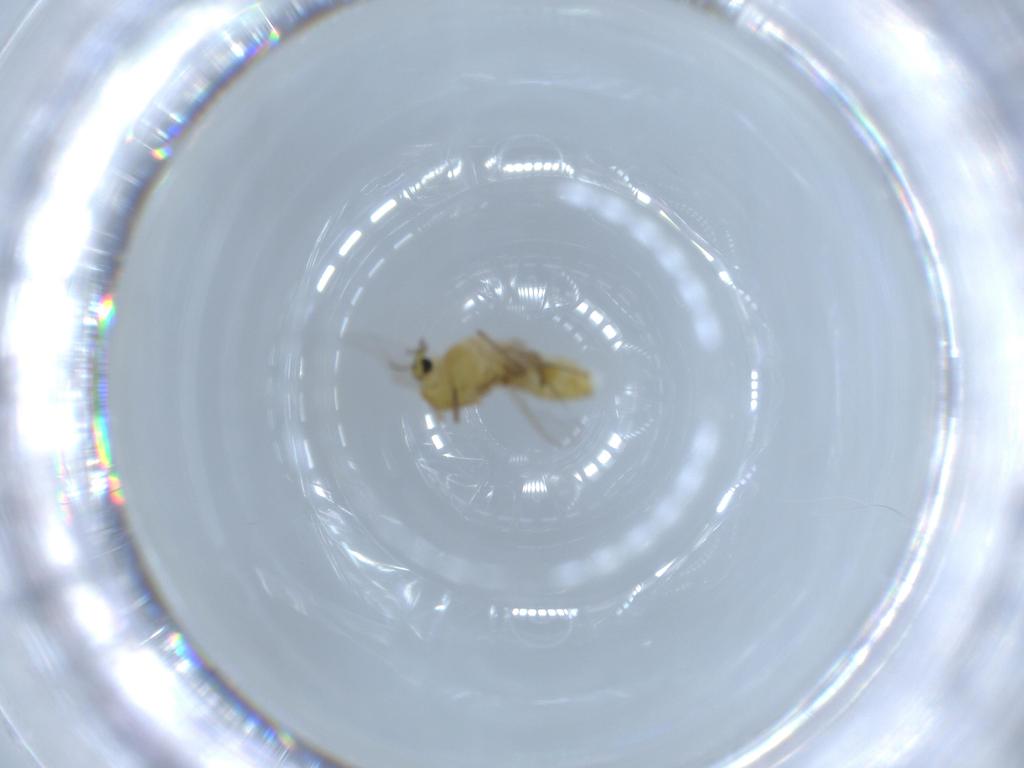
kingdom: Animalia
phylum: Arthropoda
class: Insecta
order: Diptera
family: Chironomidae
